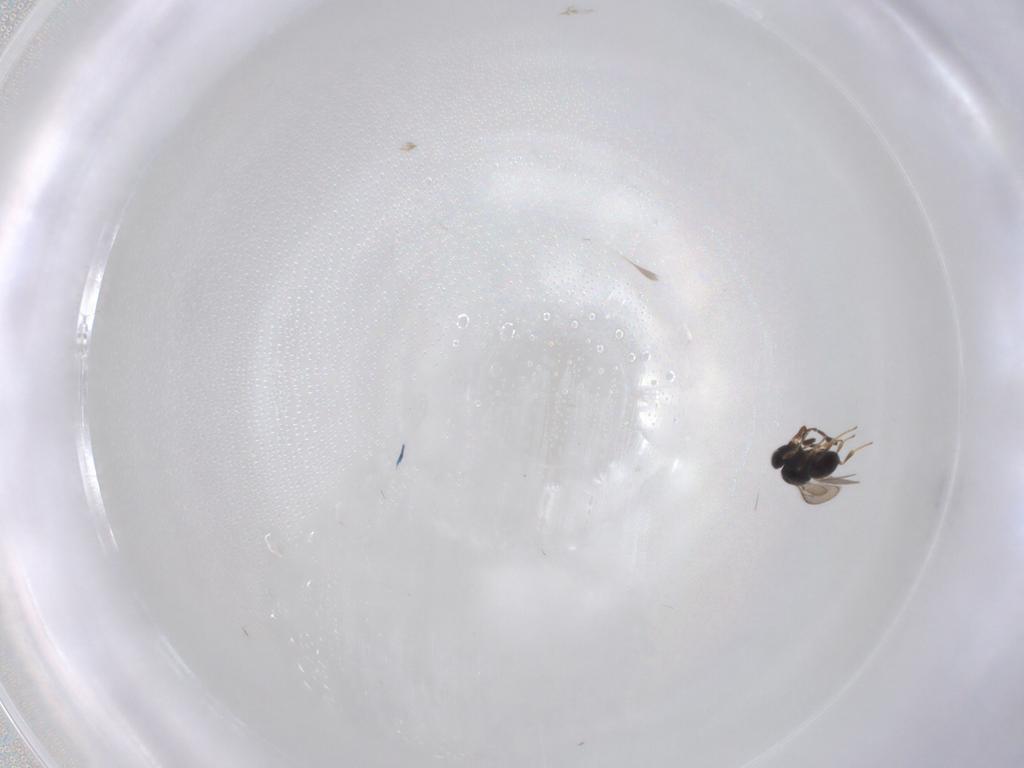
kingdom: Animalia
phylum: Arthropoda
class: Insecta
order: Hymenoptera
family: Scelionidae
